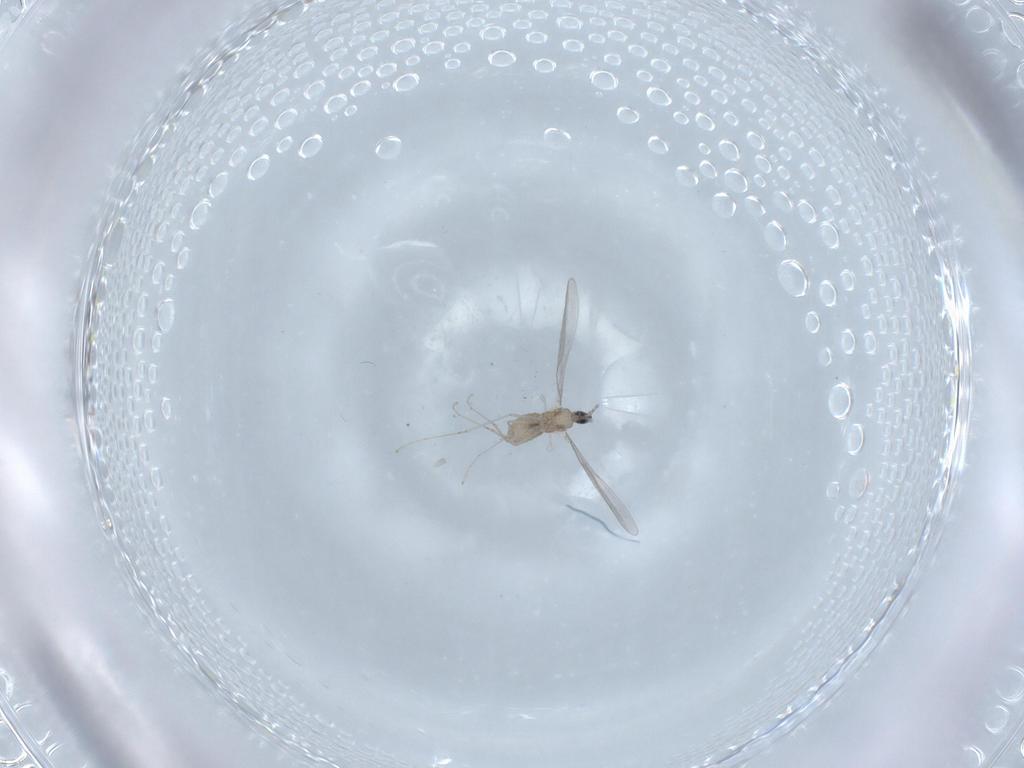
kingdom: Animalia
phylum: Arthropoda
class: Insecta
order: Diptera
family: Cecidomyiidae
